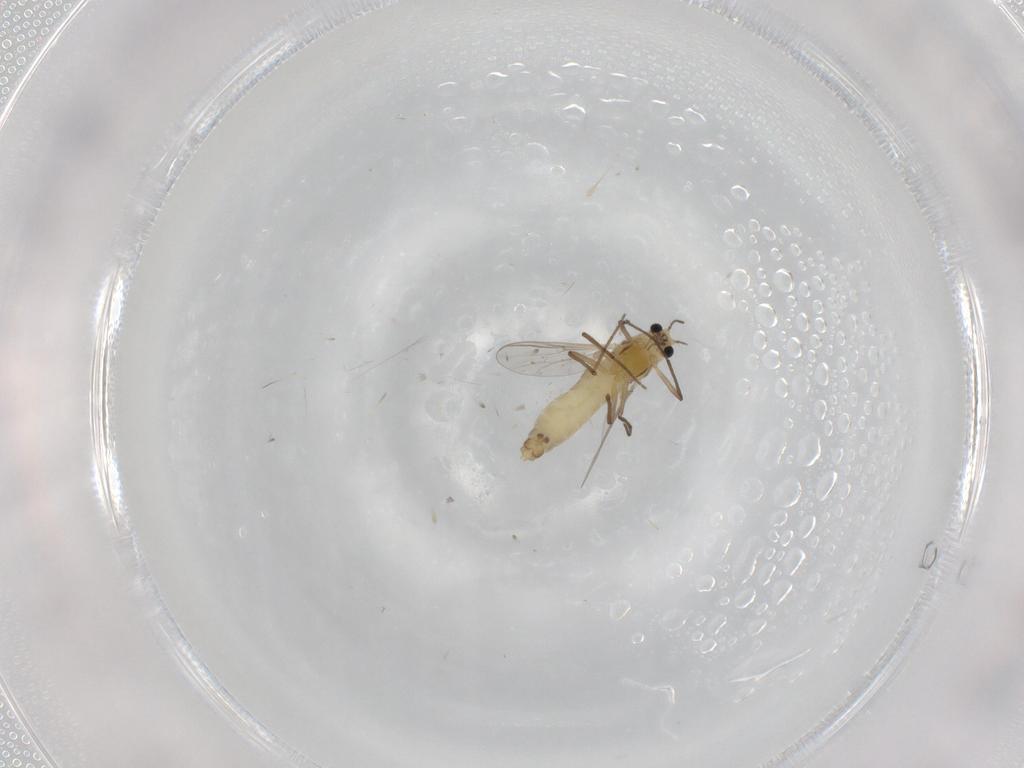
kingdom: Animalia
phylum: Arthropoda
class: Insecta
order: Diptera
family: Chironomidae
